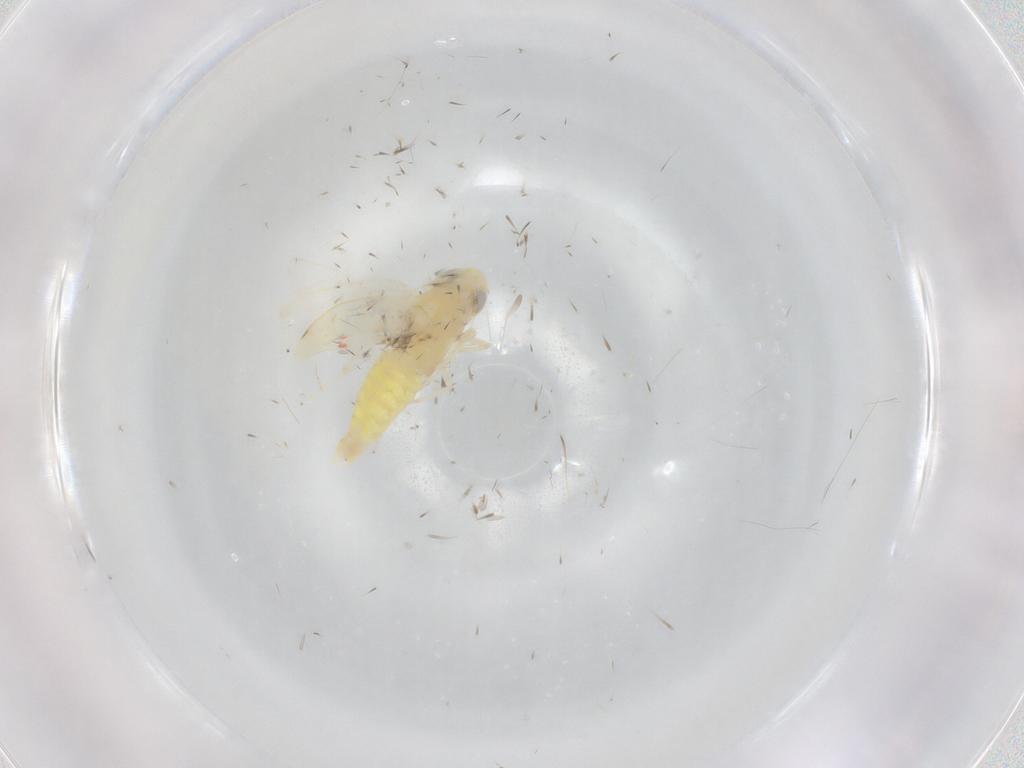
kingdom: Animalia
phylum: Arthropoda
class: Insecta
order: Hemiptera
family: Cicadellidae
